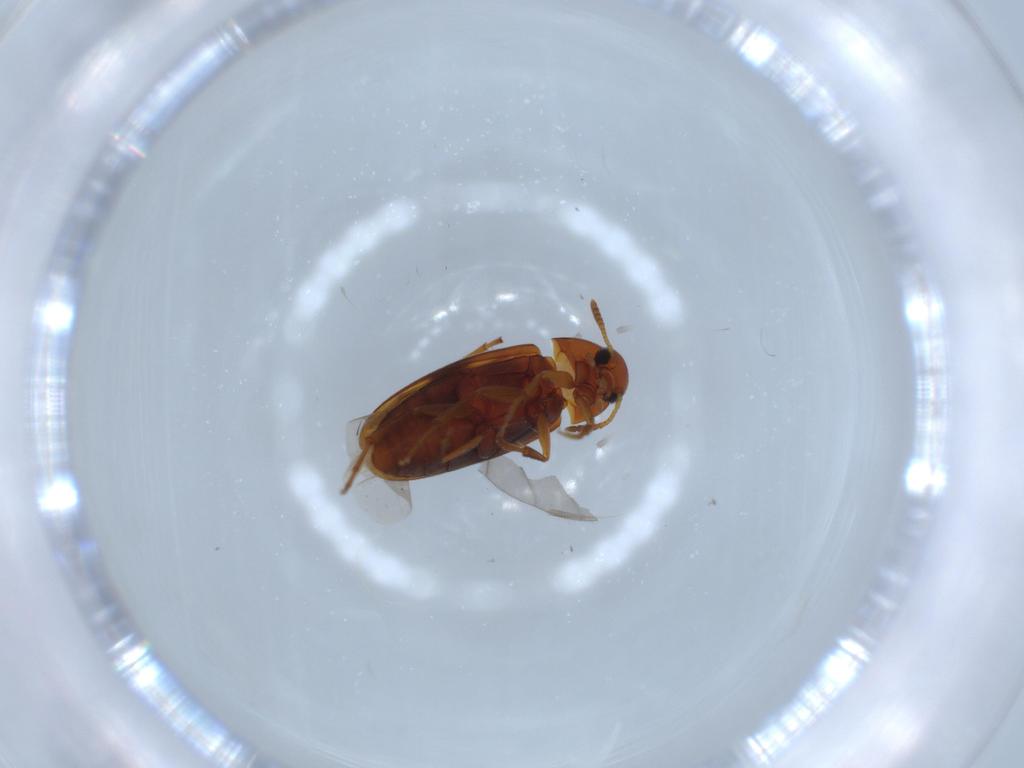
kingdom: Animalia
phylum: Arthropoda
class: Insecta
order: Coleoptera
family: Scraptiidae
